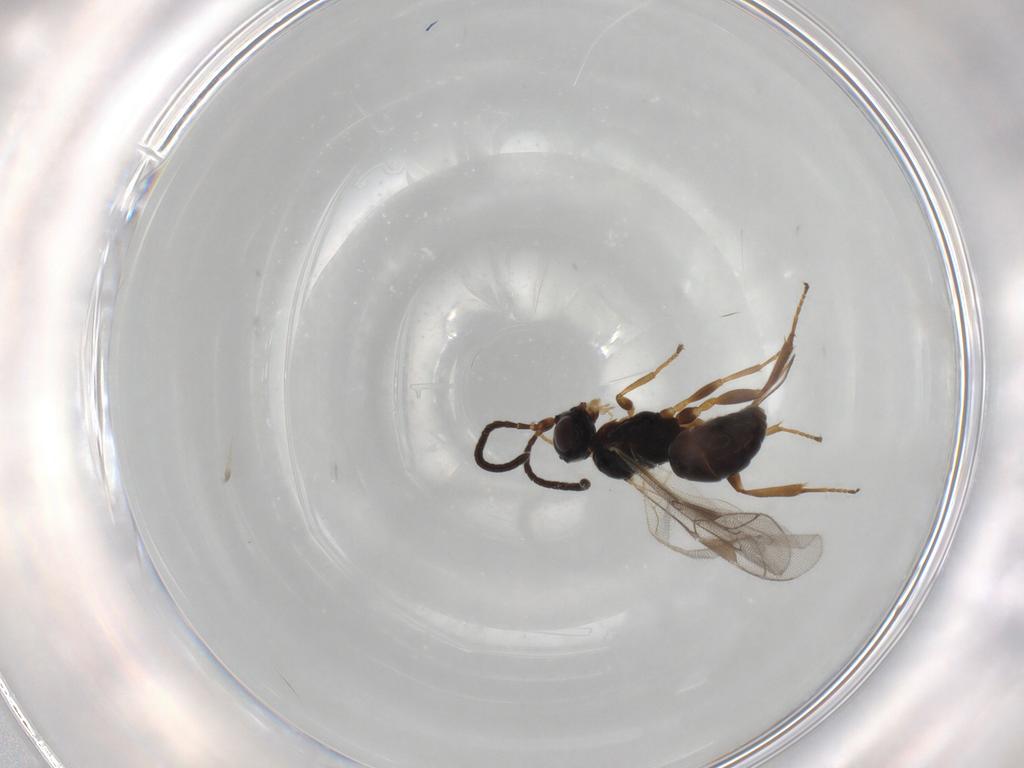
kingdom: Animalia
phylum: Arthropoda
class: Insecta
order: Hymenoptera
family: Ichneumonidae
